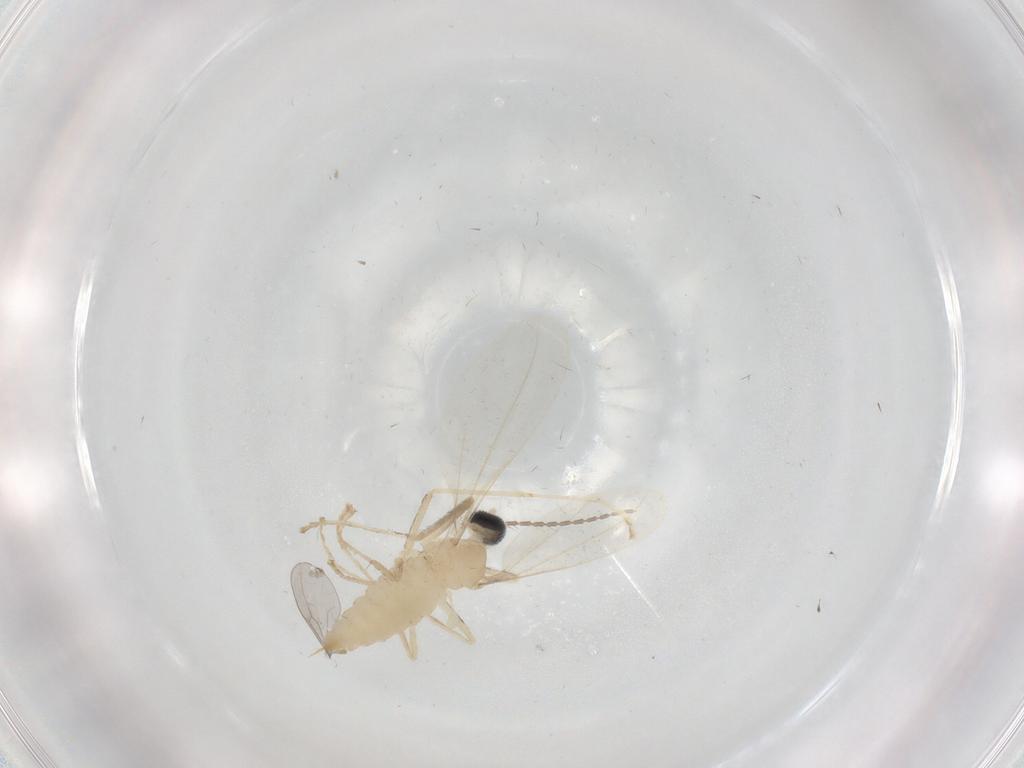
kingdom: Animalia
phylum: Arthropoda
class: Insecta
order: Diptera
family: Cecidomyiidae
